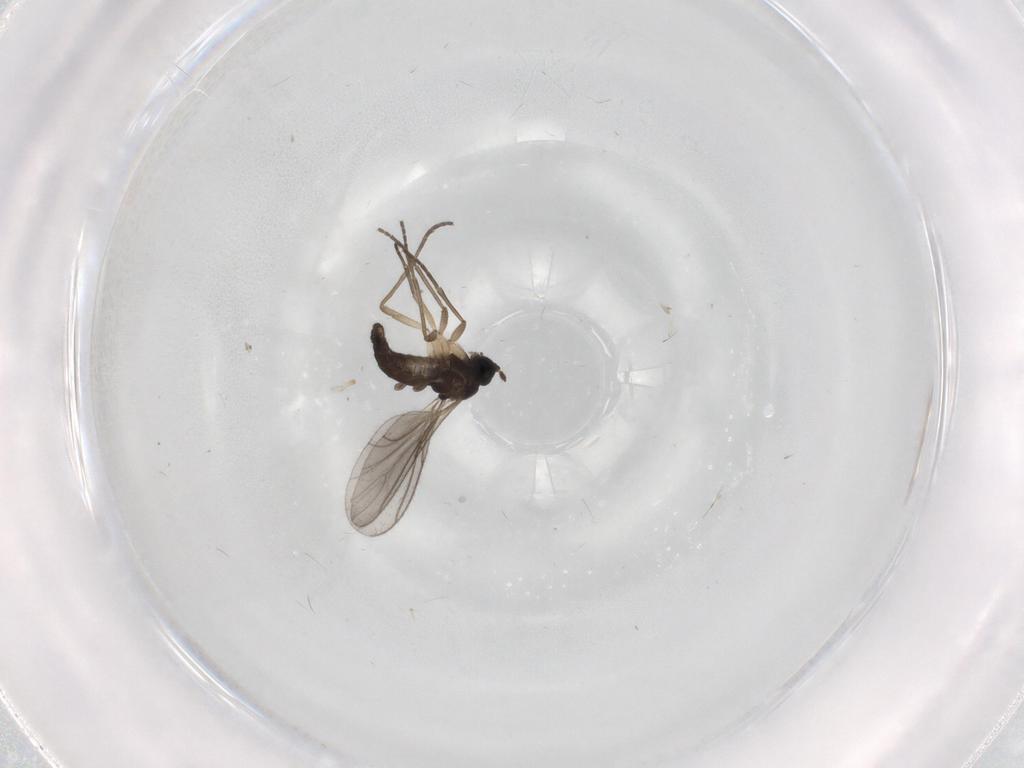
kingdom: Animalia
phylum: Arthropoda
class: Insecta
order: Diptera
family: Sciaridae
